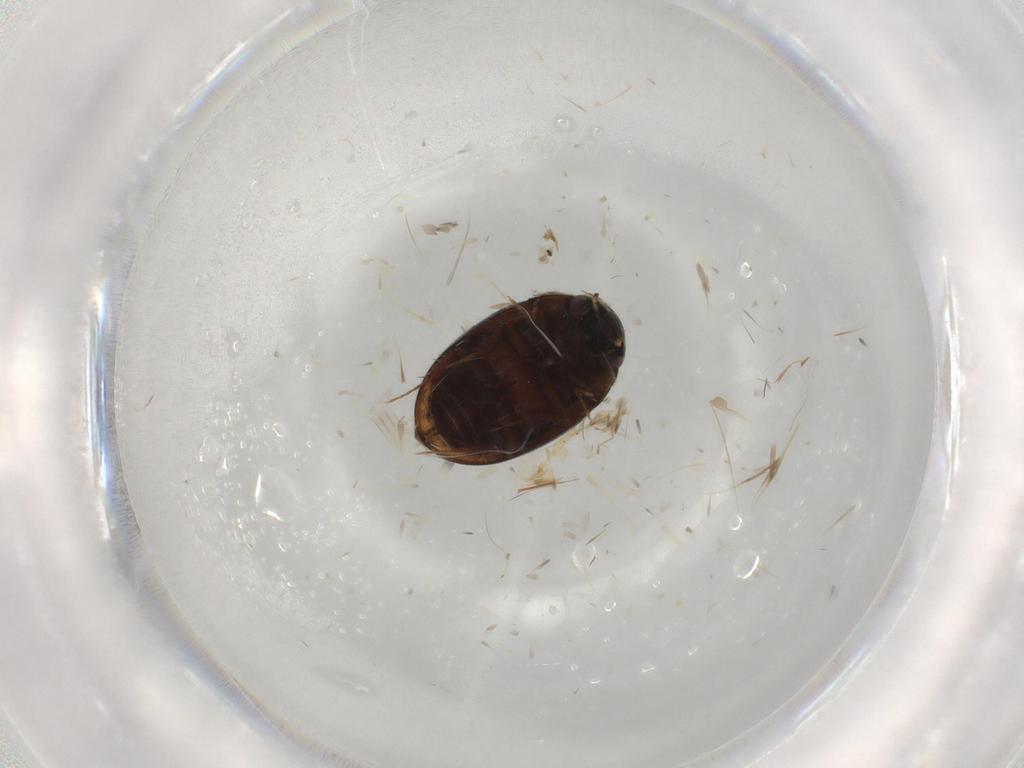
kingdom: Animalia
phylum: Arthropoda
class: Insecta
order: Coleoptera
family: Hydrophilidae
